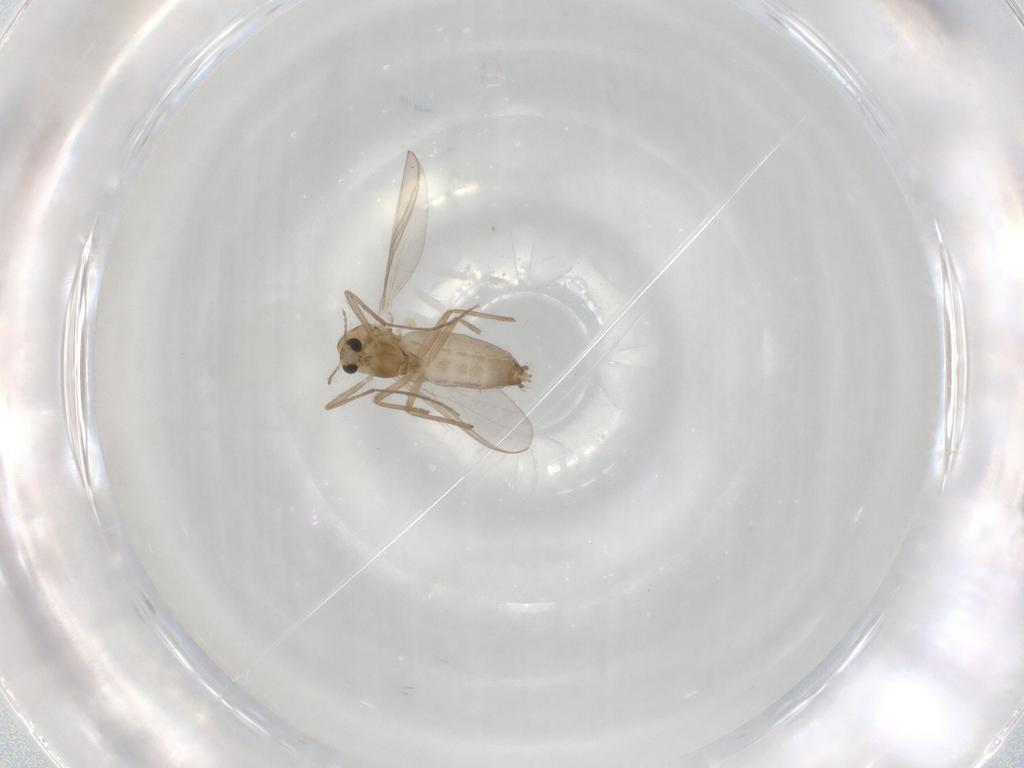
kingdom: Animalia
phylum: Arthropoda
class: Insecta
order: Diptera
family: Chironomidae
